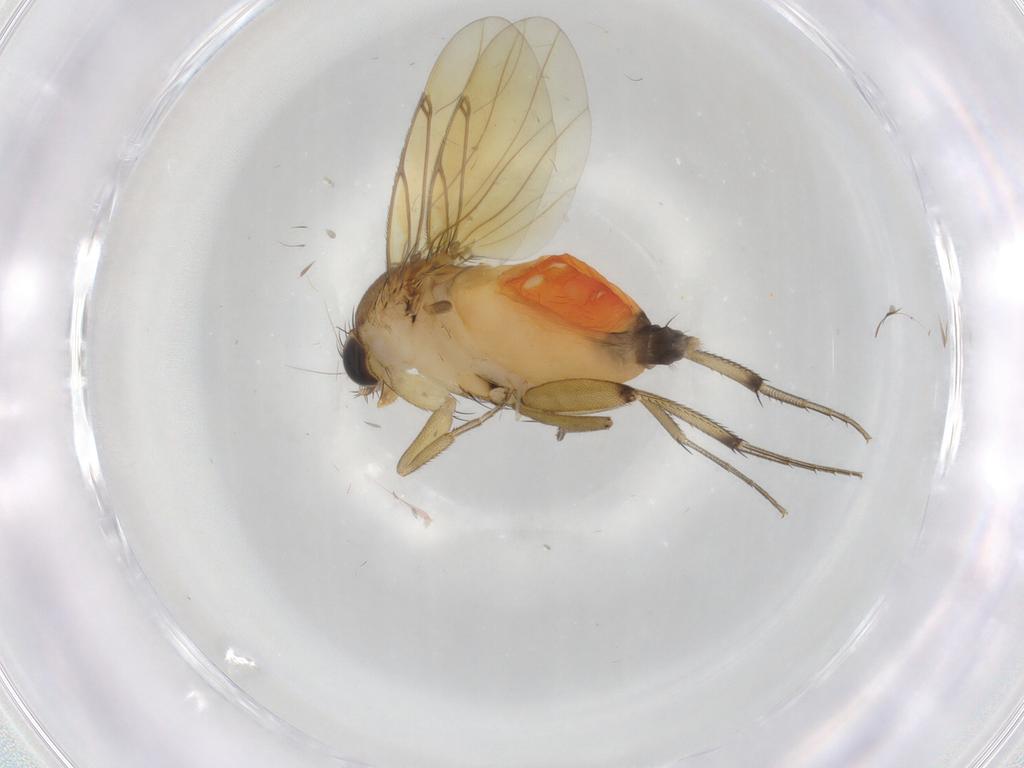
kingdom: Animalia
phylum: Arthropoda
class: Insecta
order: Diptera
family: Phoridae
